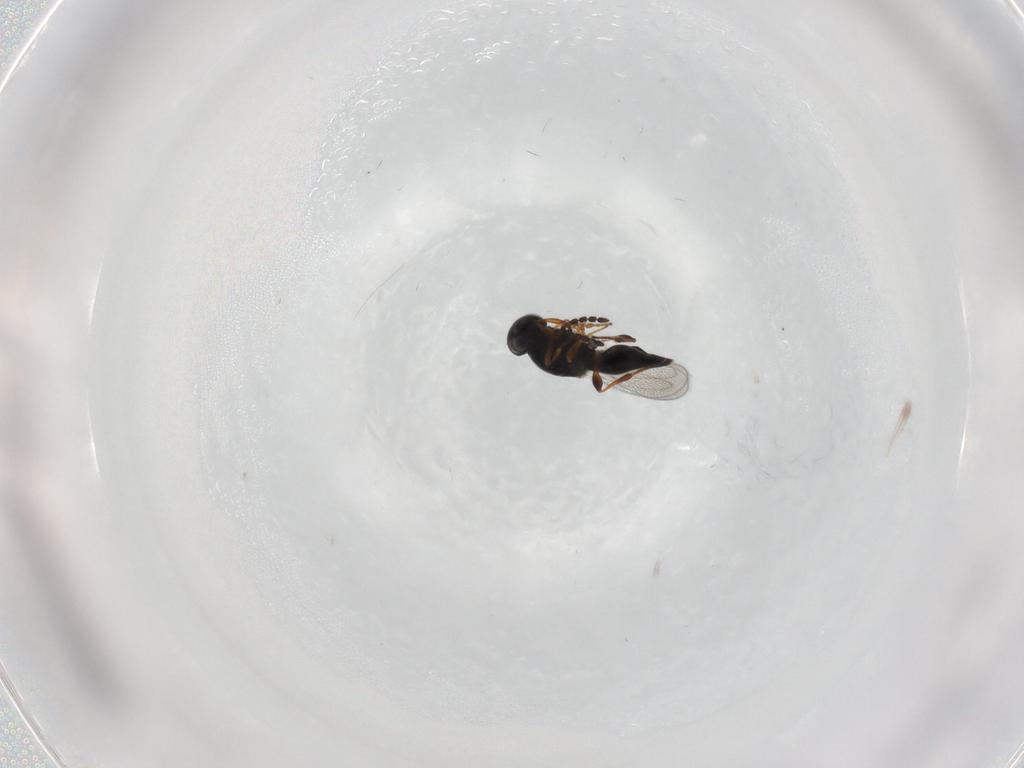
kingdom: Animalia
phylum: Arthropoda
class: Insecta
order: Hymenoptera
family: Platygastridae
